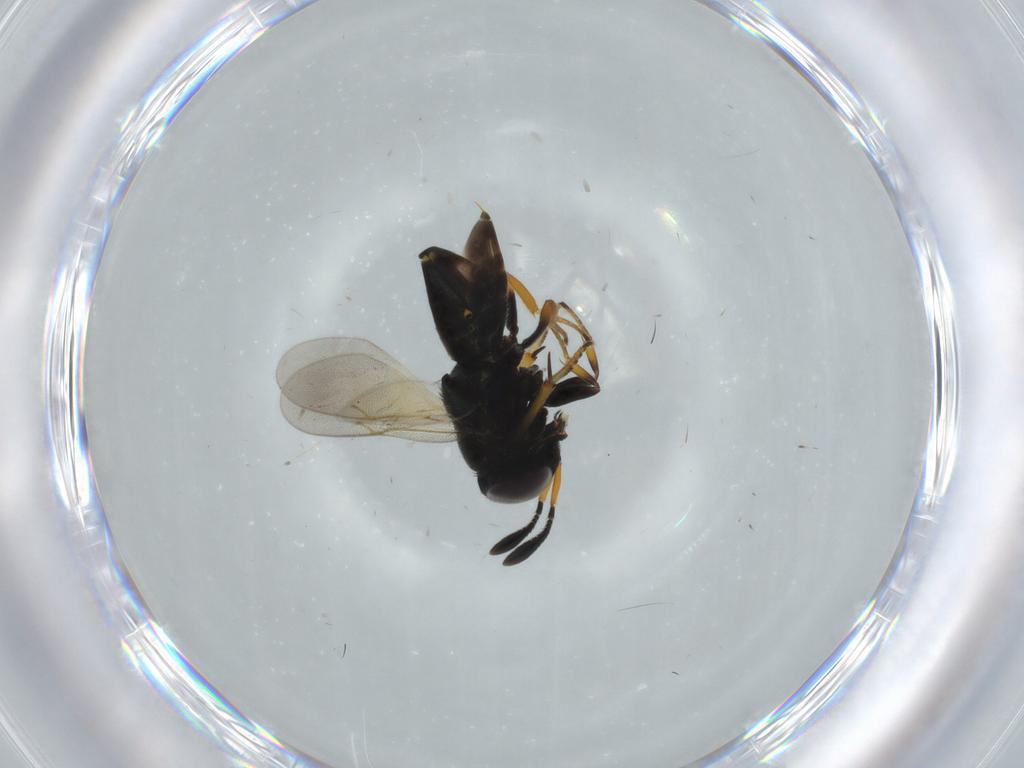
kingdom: Animalia
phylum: Arthropoda
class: Insecta
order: Hymenoptera
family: Encyrtidae
